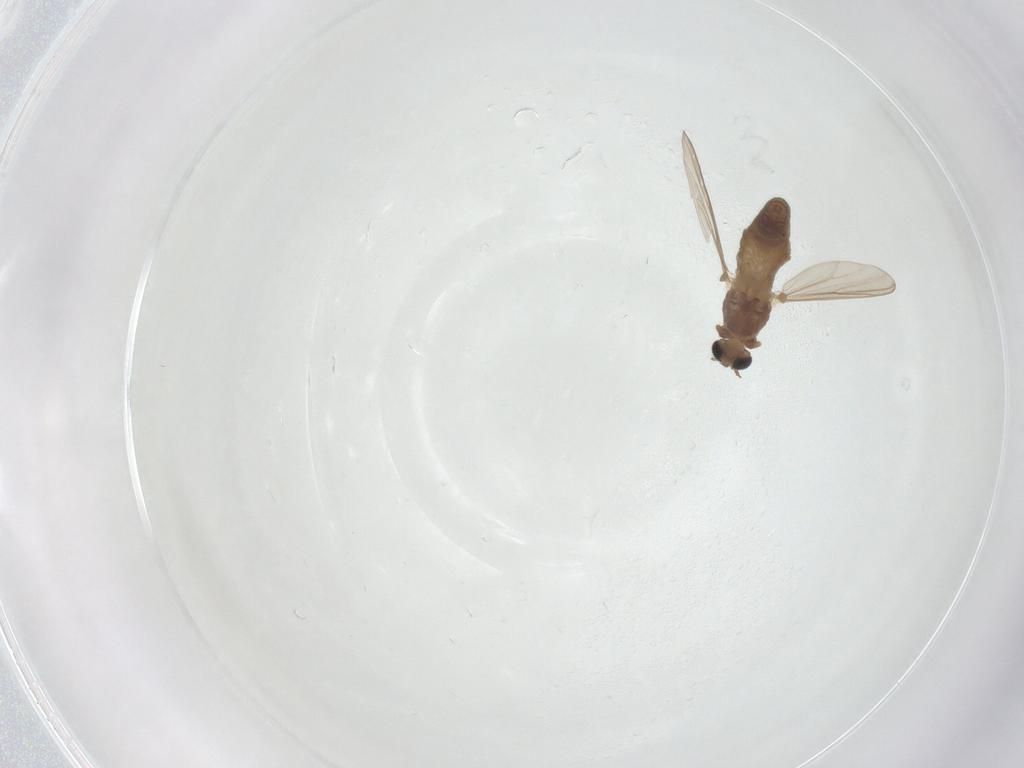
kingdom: Animalia
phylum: Arthropoda
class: Insecta
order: Diptera
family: Chironomidae
